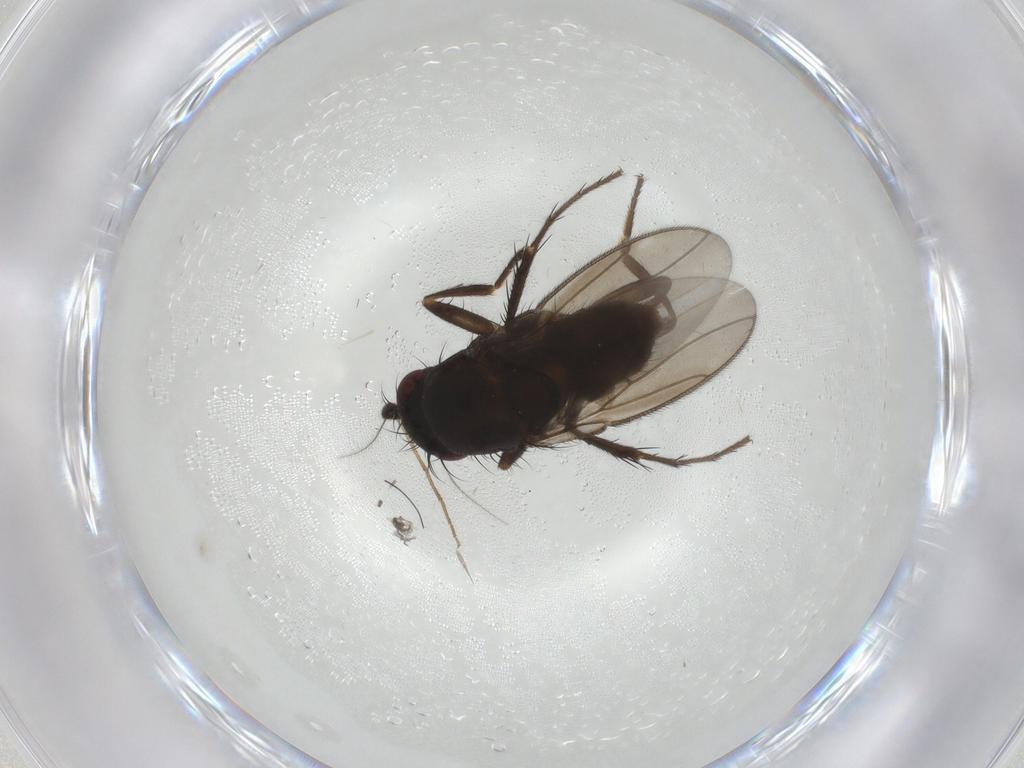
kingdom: Animalia
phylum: Arthropoda
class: Insecta
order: Diptera
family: Sphaeroceridae
